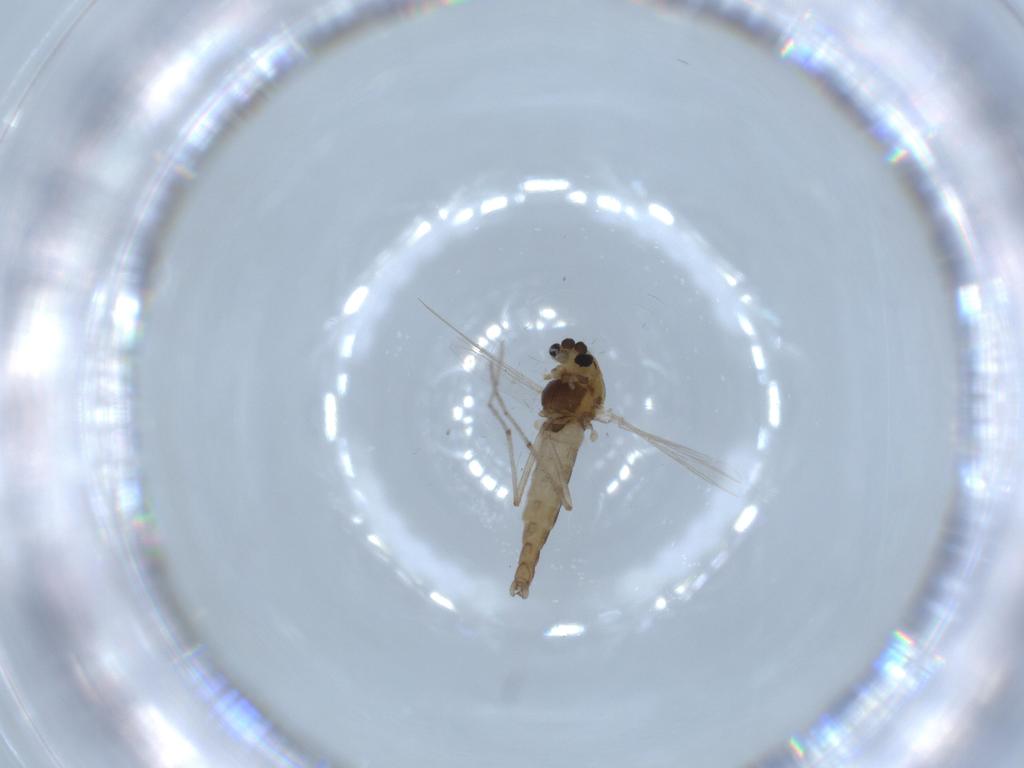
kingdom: Animalia
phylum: Arthropoda
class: Insecta
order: Diptera
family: Chironomidae
